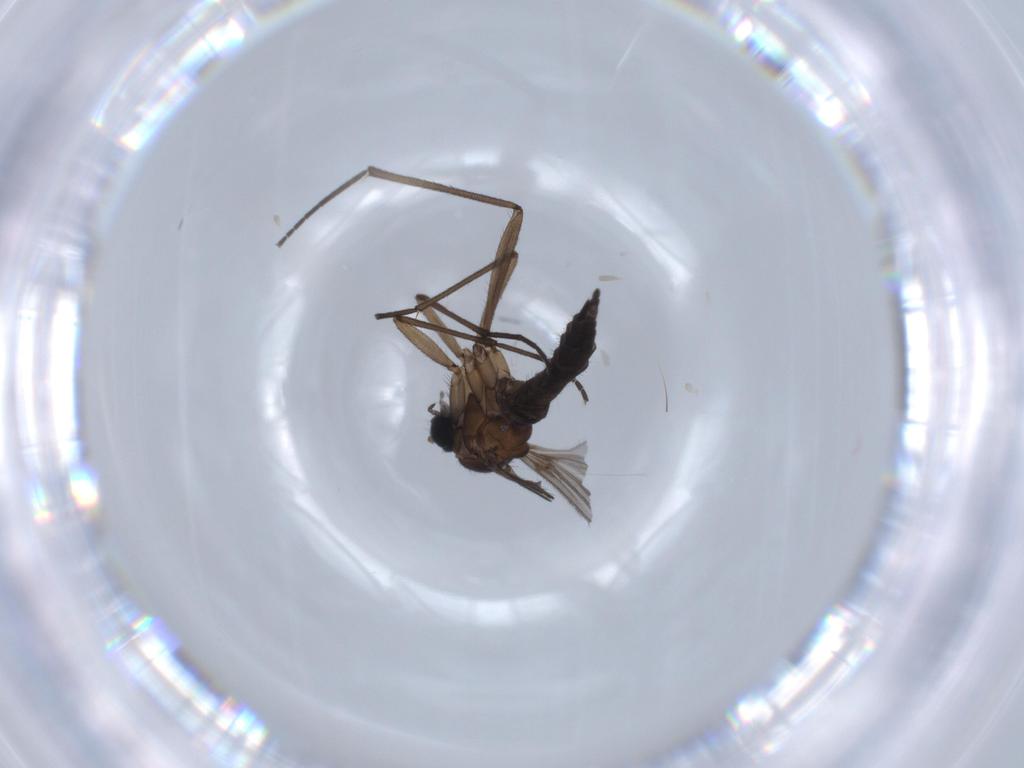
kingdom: Animalia
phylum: Arthropoda
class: Insecta
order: Diptera
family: Sciaridae
